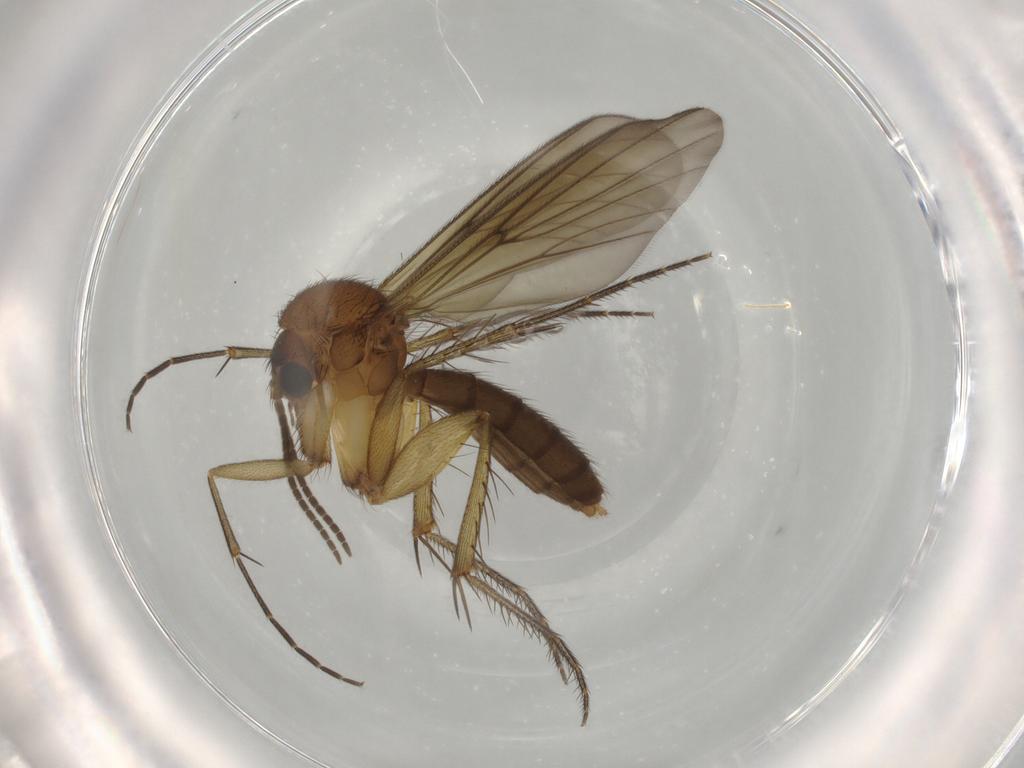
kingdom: Animalia
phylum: Arthropoda
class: Insecta
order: Diptera
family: Mycetophilidae
